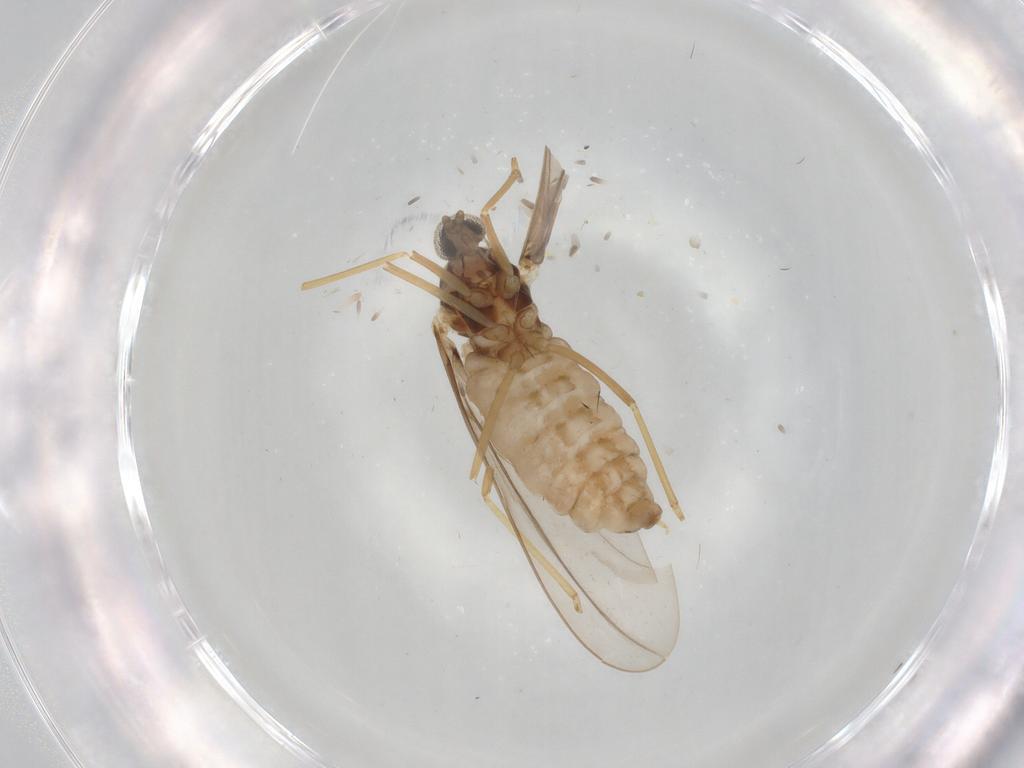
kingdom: Animalia
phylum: Arthropoda
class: Insecta
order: Diptera
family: Cecidomyiidae
